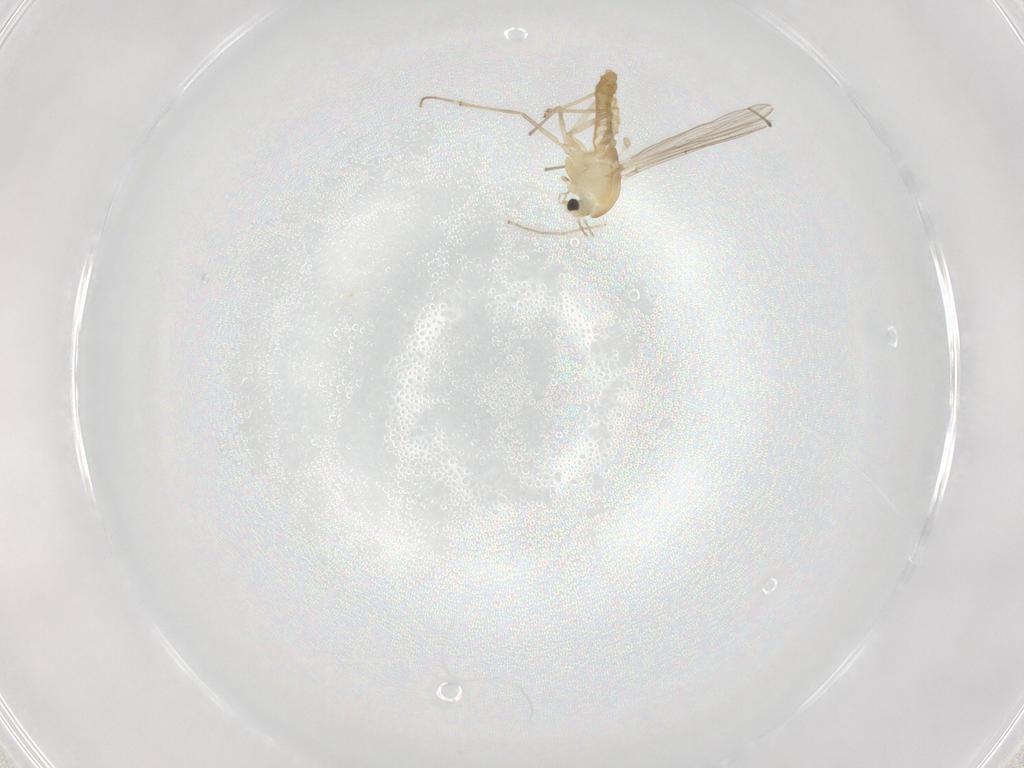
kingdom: Animalia
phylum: Arthropoda
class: Insecta
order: Diptera
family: Chironomidae
